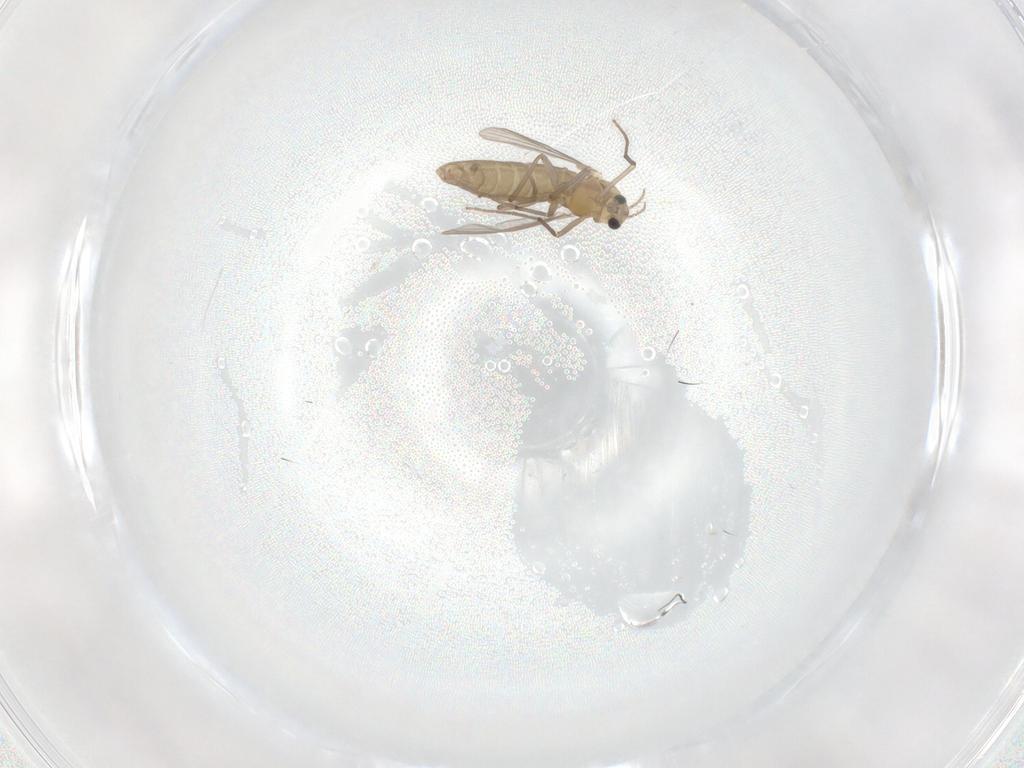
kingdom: Animalia
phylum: Arthropoda
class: Insecta
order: Diptera
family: Chironomidae
